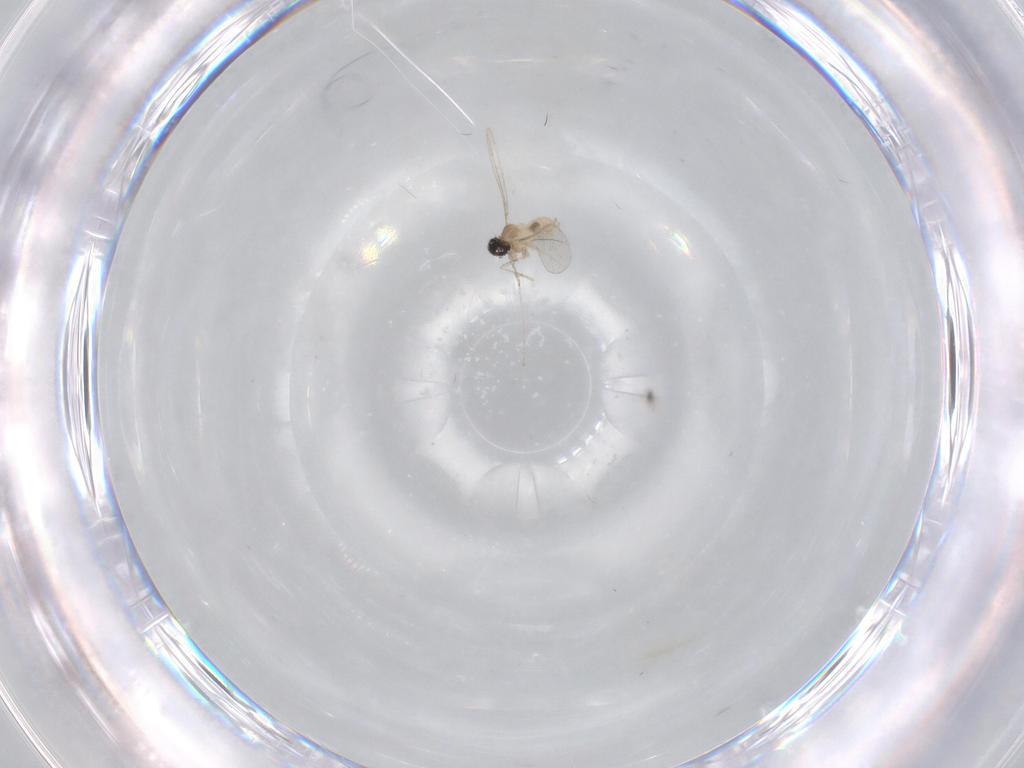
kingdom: Animalia
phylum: Arthropoda
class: Insecta
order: Diptera
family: Cecidomyiidae
